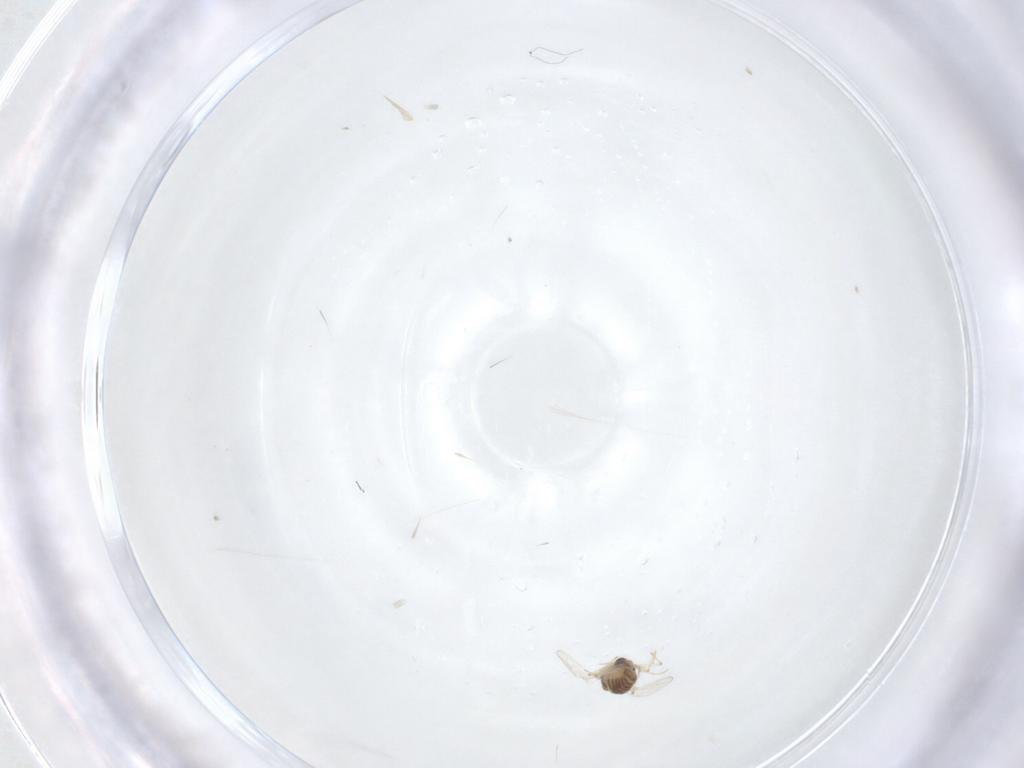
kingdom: Animalia
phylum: Arthropoda
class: Insecta
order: Diptera
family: Chironomidae
